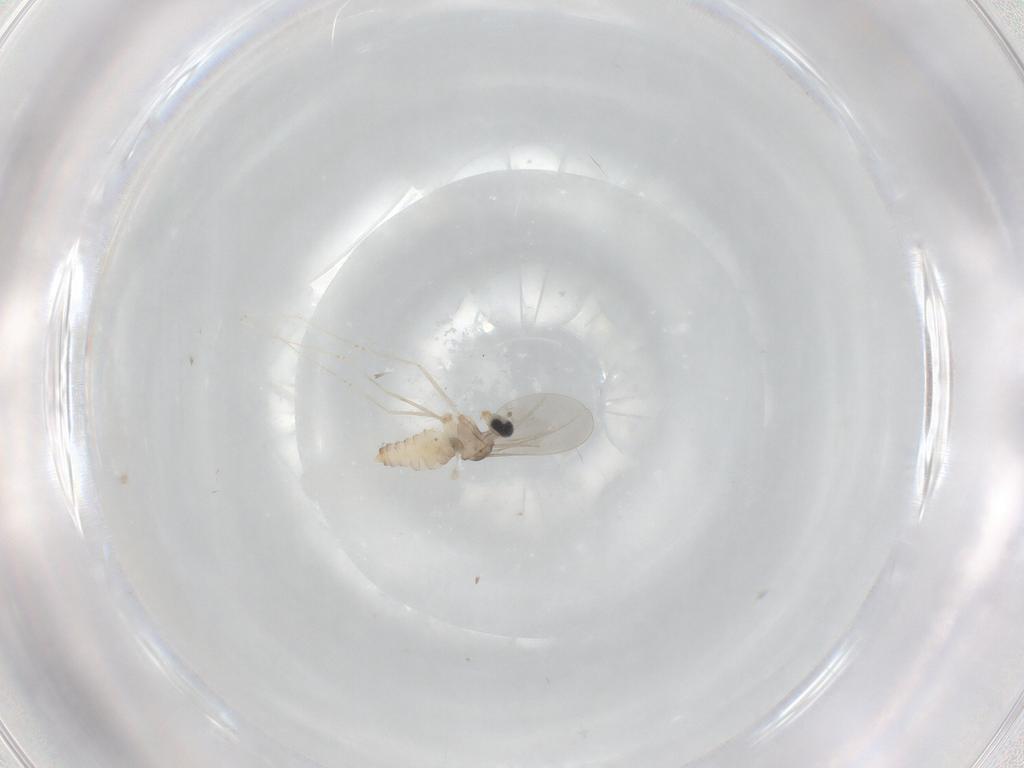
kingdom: Animalia
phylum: Arthropoda
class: Insecta
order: Diptera
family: Cecidomyiidae
